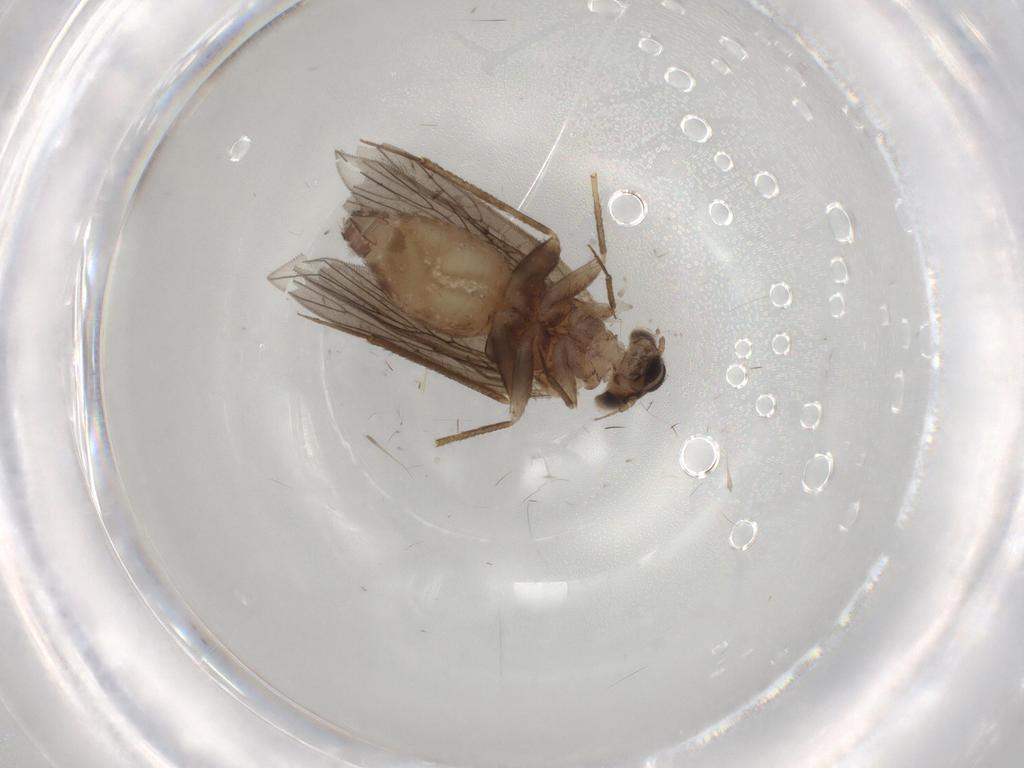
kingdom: Animalia
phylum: Arthropoda
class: Insecta
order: Psocodea
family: Lepidopsocidae
